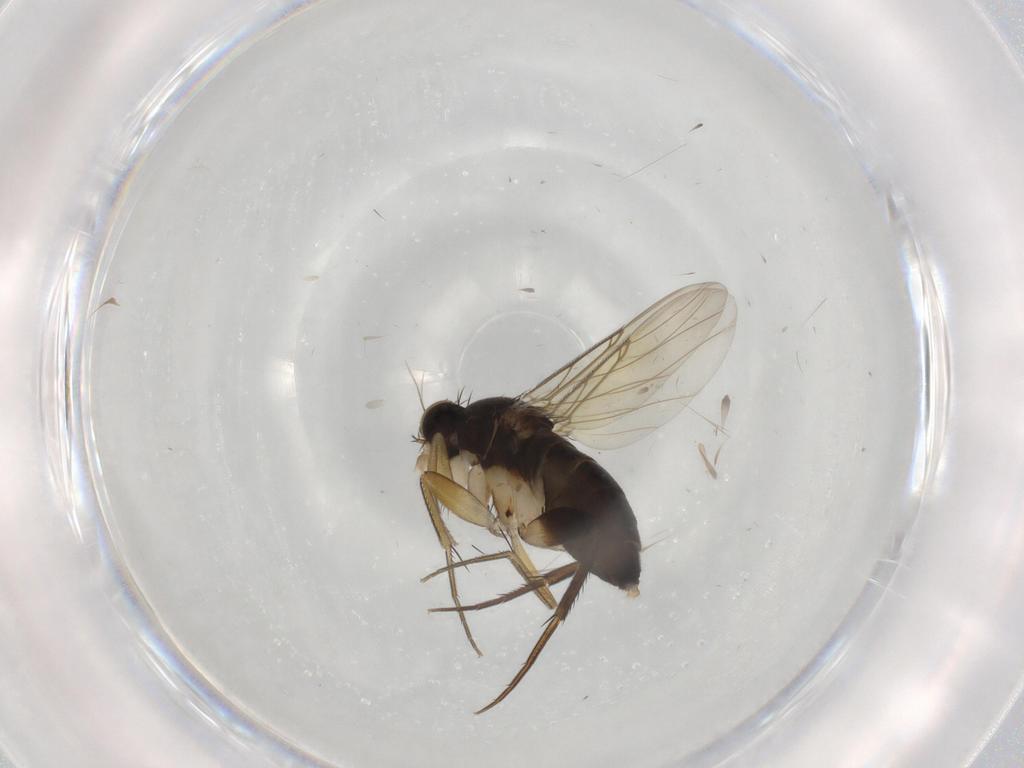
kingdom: Animalia
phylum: Arthropoda
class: Insecta
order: Diptera
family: Phoridae
